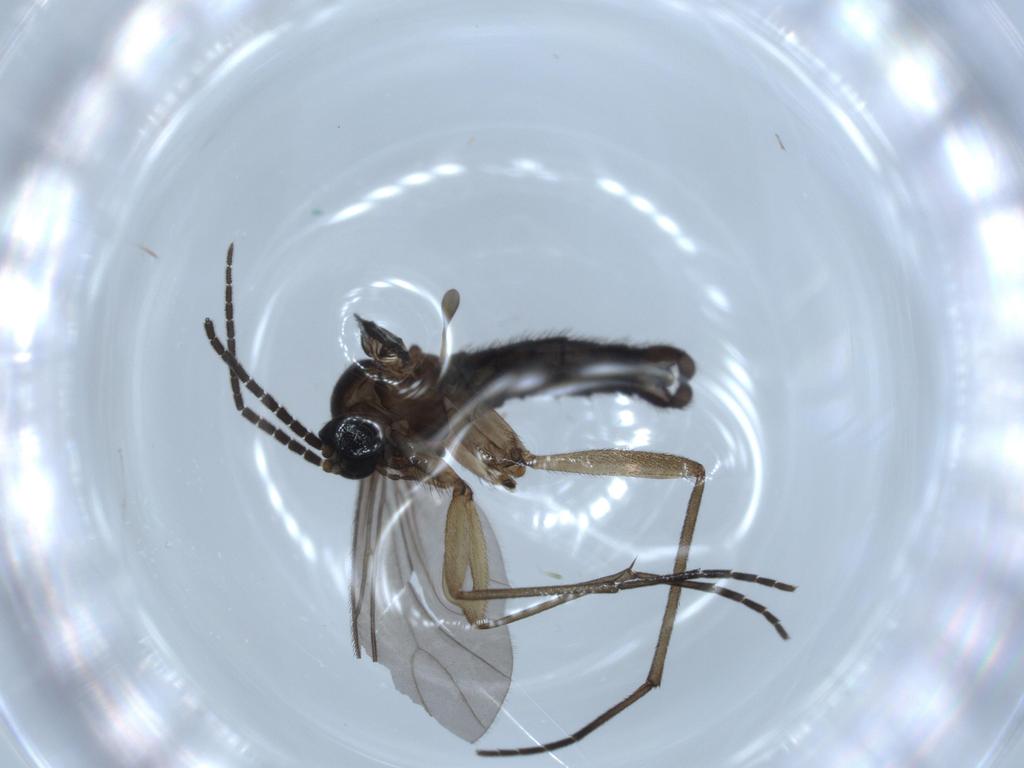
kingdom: Animalia
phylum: Arthropoda
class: Insecta
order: Diptera
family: Sciaridae
